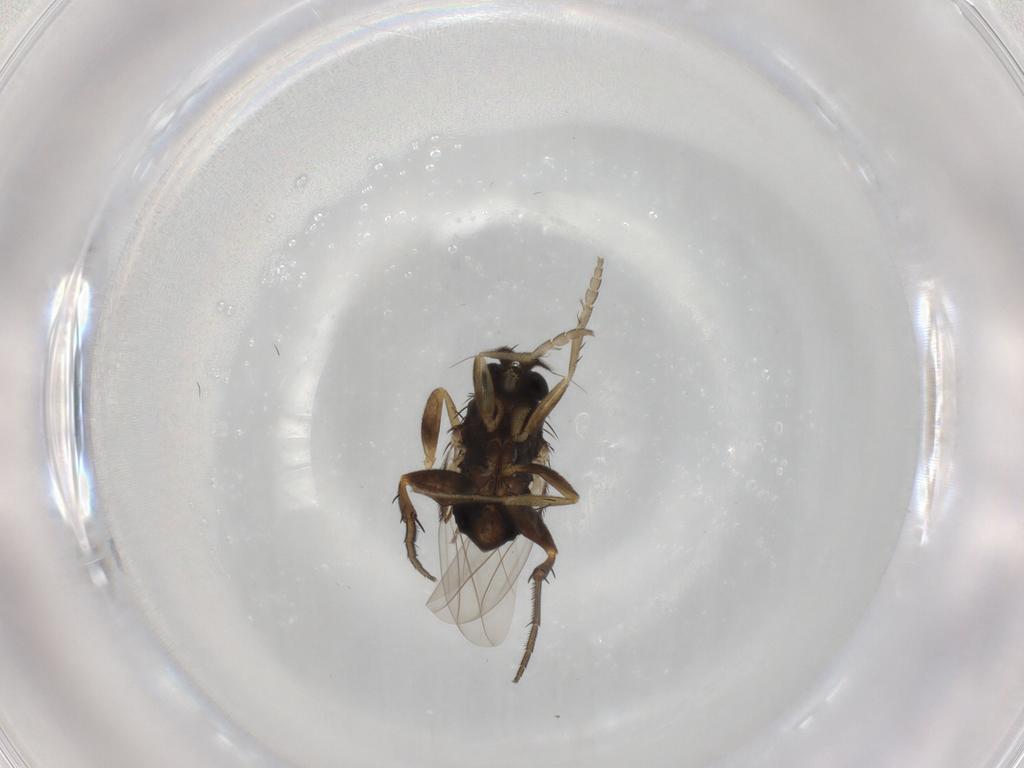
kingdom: Animalia
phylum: Arthropoda
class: Insecta
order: Diptera
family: Phoridae
